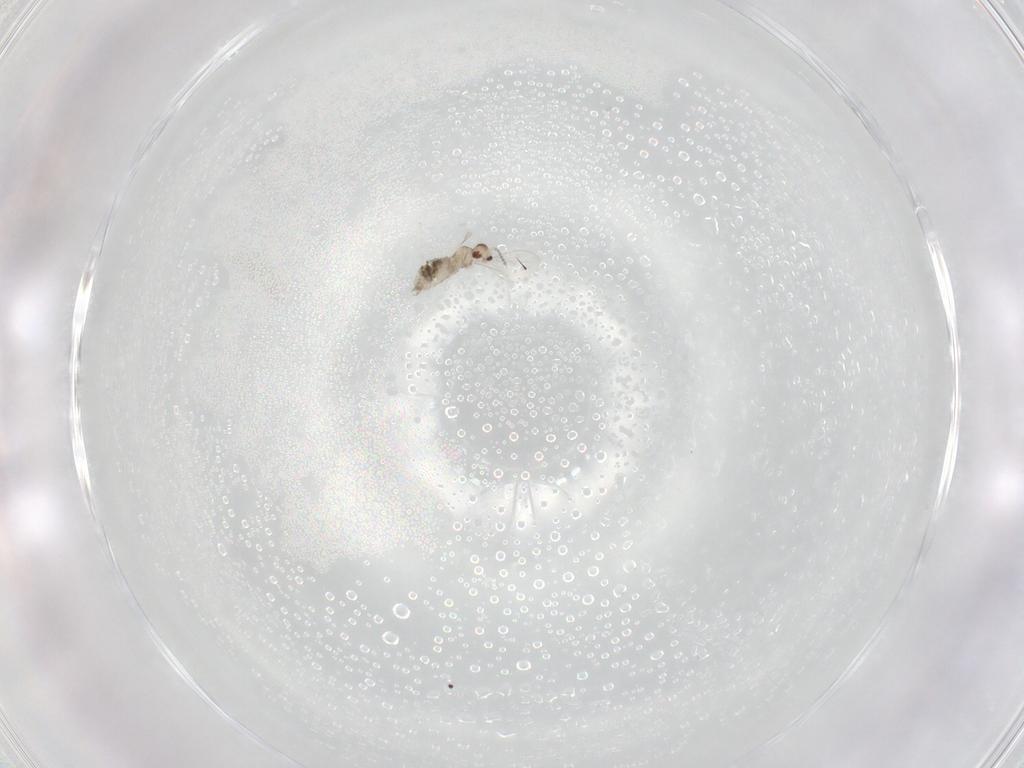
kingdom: Animalia
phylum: Arthropoda
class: Insecta
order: Diptera
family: Cecidomyiidae
